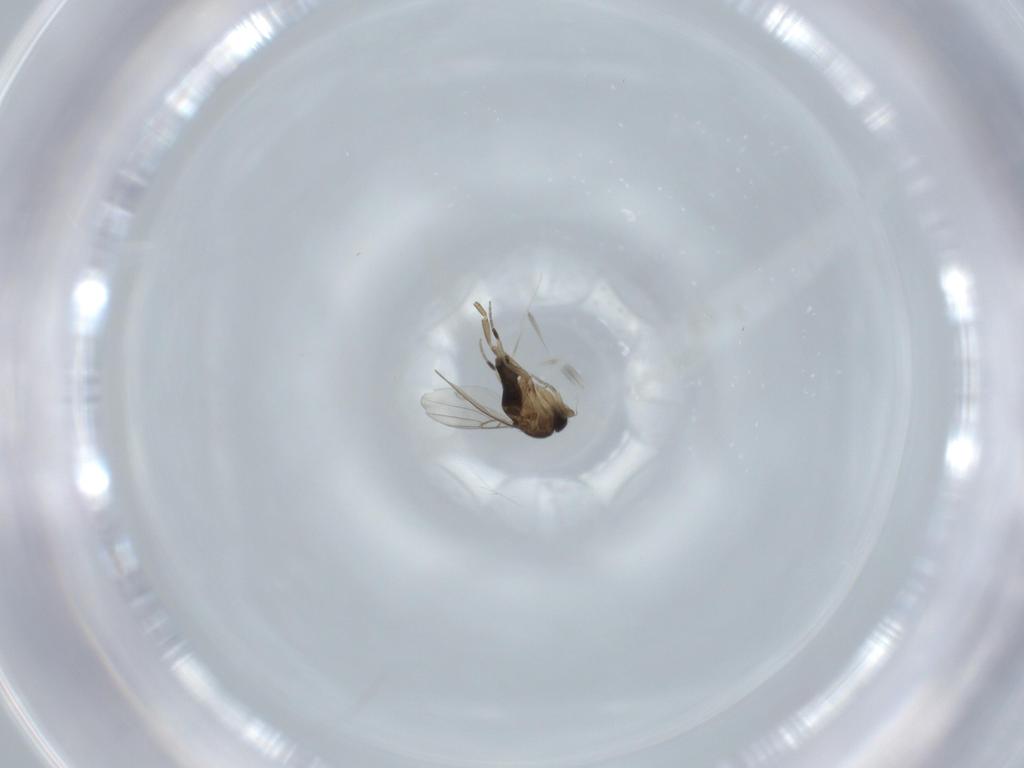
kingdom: Animalia
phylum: Arthropoda
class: Insecta
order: Diptera
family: Phoridae
